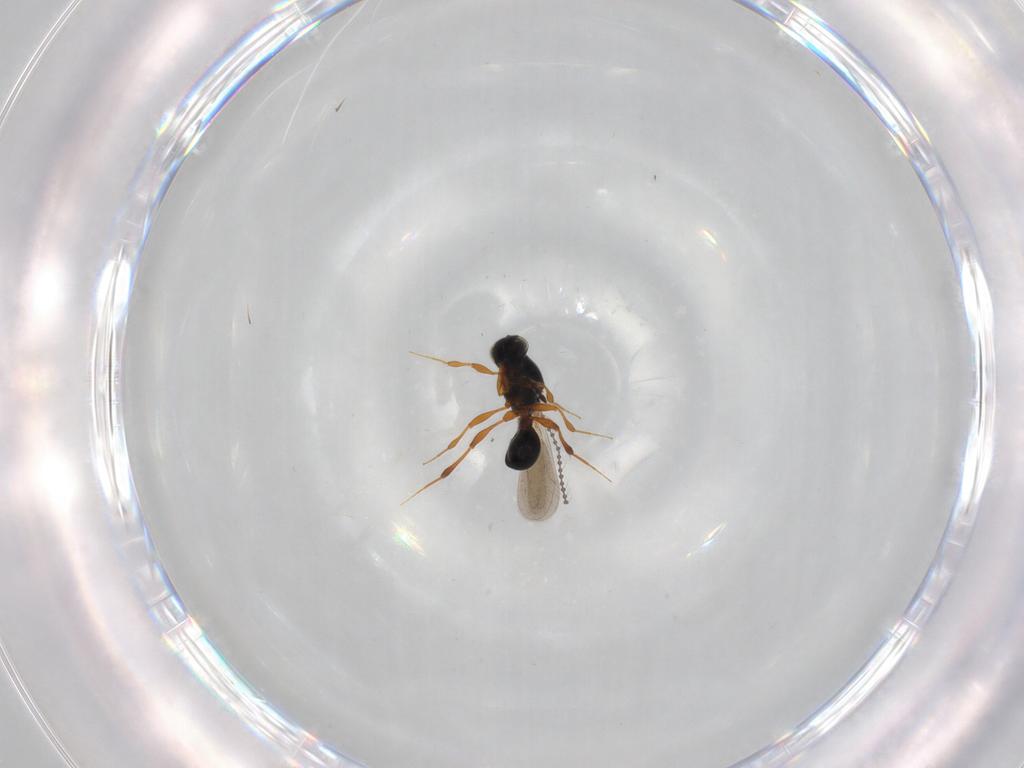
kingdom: Animalia
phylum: Arthropoda
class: Insecta
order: Hymenoptera
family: Platygastridae
